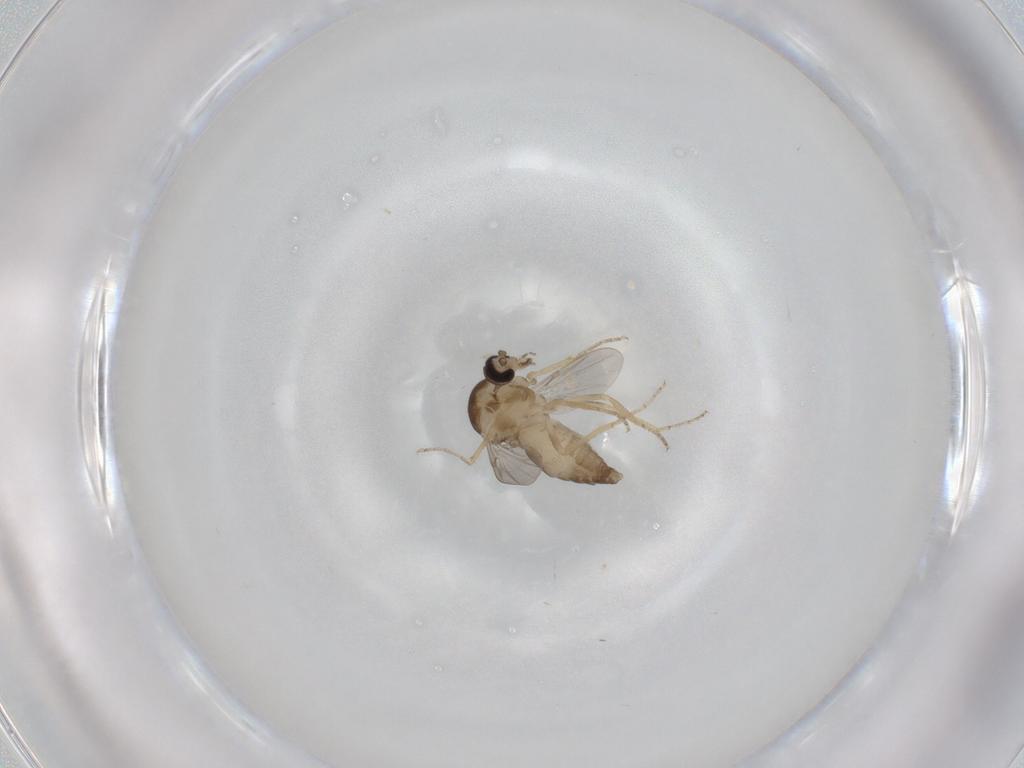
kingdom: Animalia
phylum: Arthropoda
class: Insecta
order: Diptera
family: Ceratopogonidae
